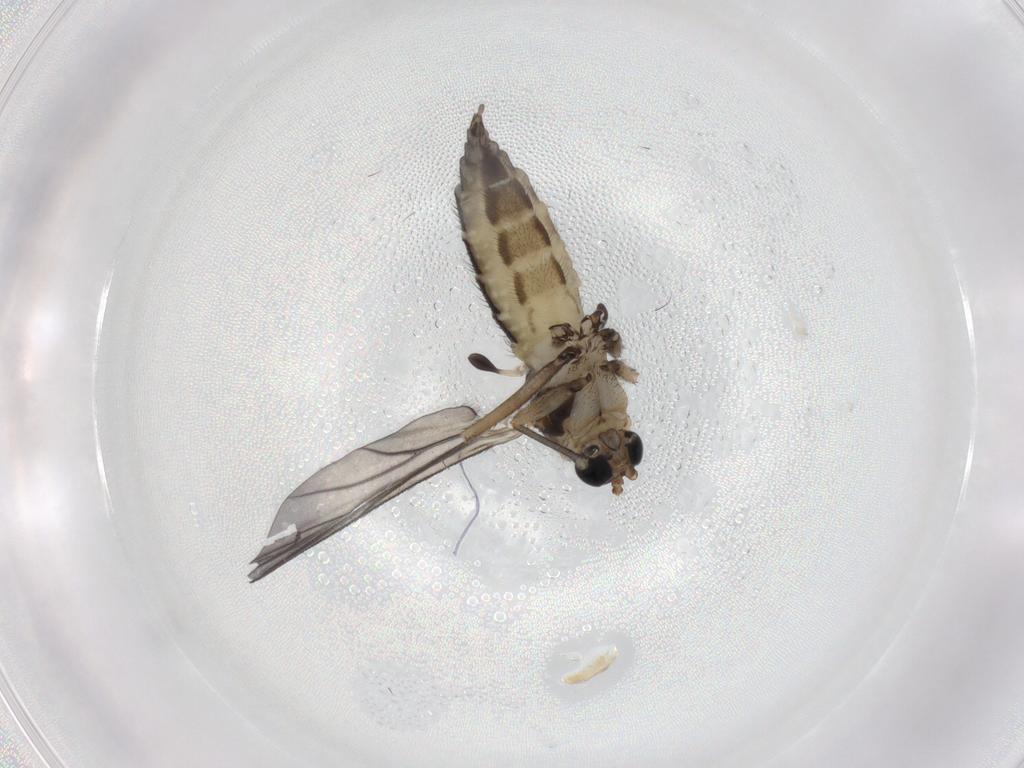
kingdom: Animalia
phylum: Arthropoda
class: Insecta
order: Diptera
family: Sciaridae
